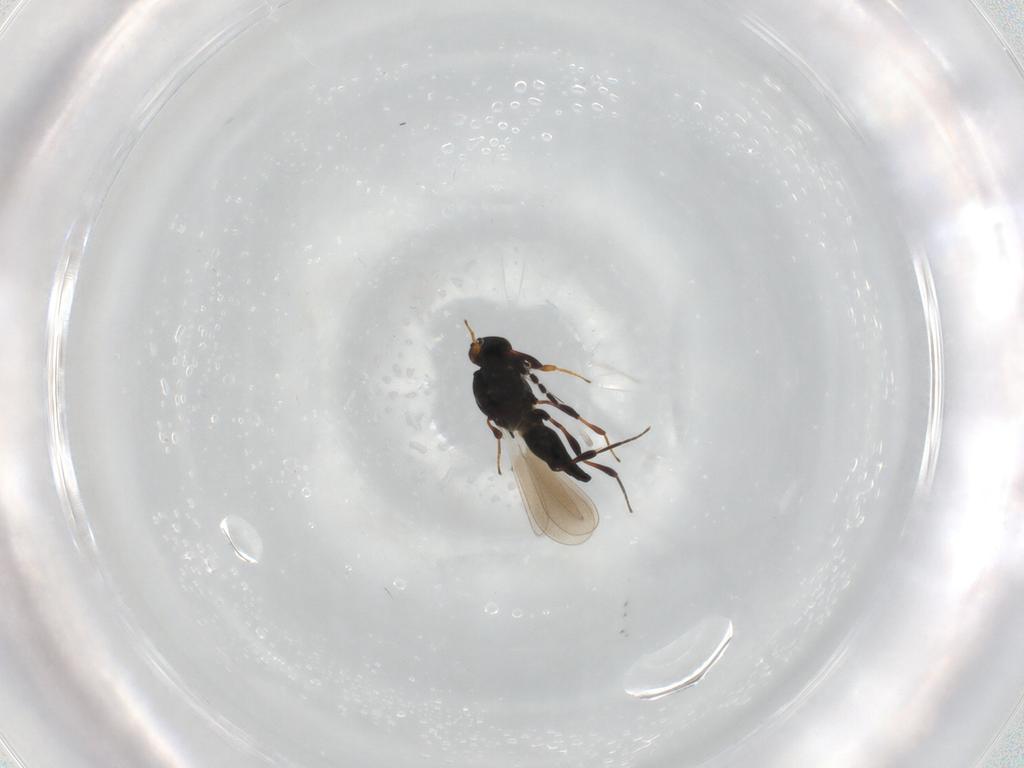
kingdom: Animalia
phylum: Arthropoda
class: Insecta
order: Hymenoptera
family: Platygastridae
